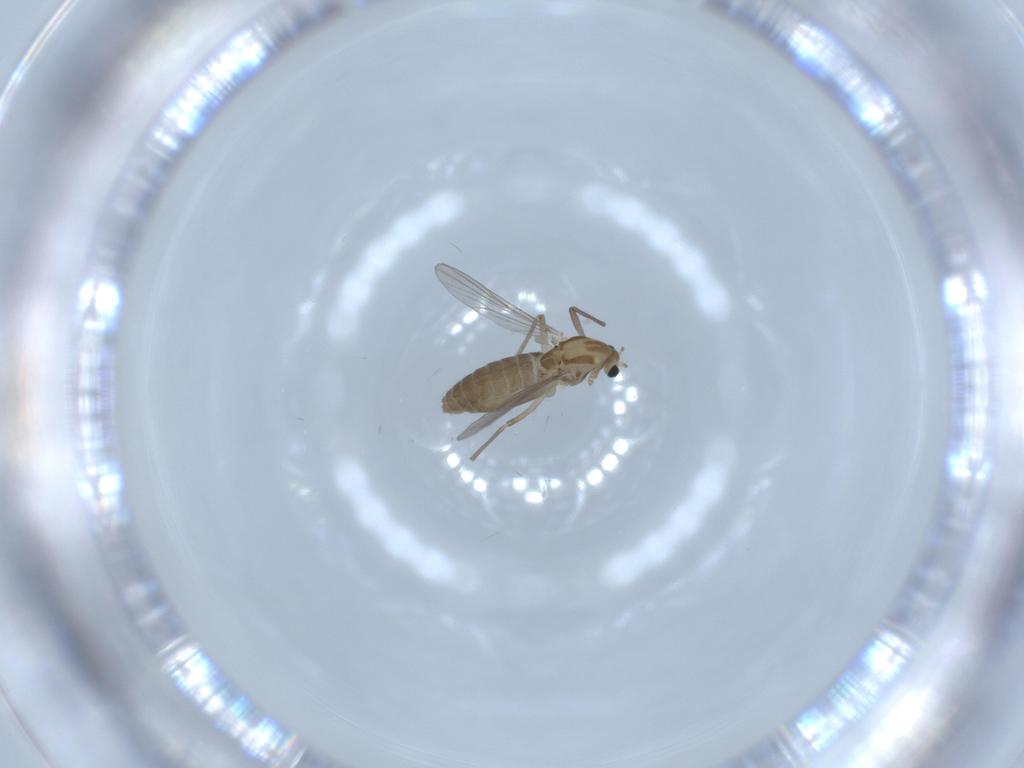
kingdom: Animalia
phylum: Arthropoda
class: Insecta
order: Diptera
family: Chironomidae
